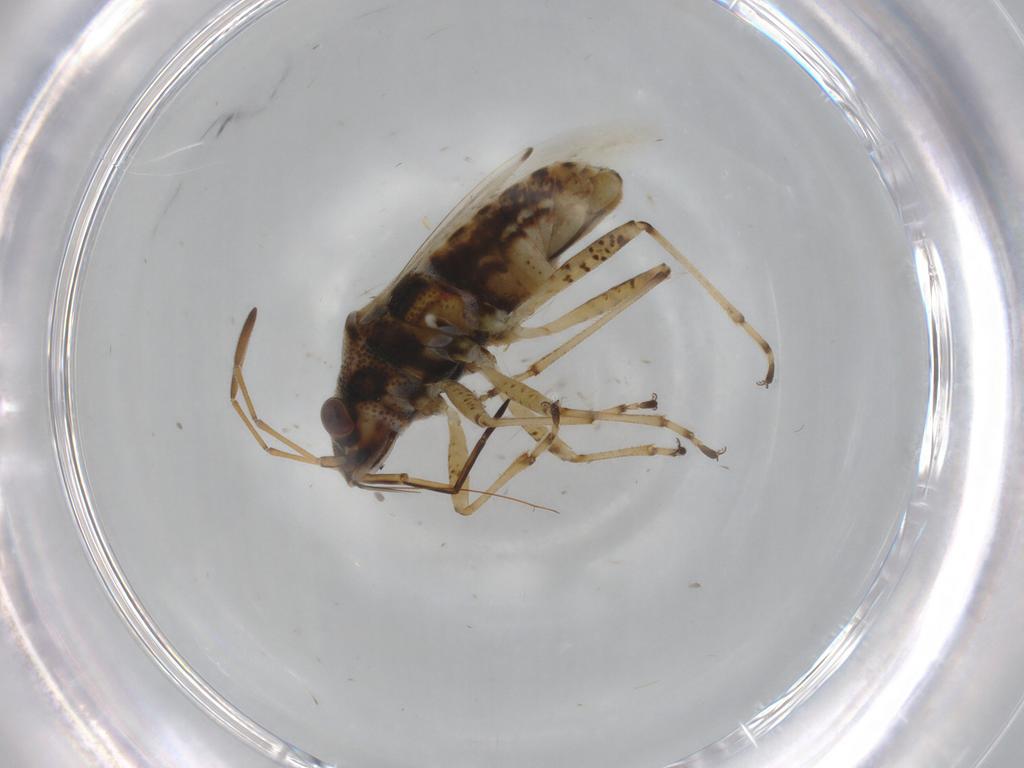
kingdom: Animalia
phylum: Arthropoda
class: Insecta
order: Hemiptera
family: Lygaeidae
